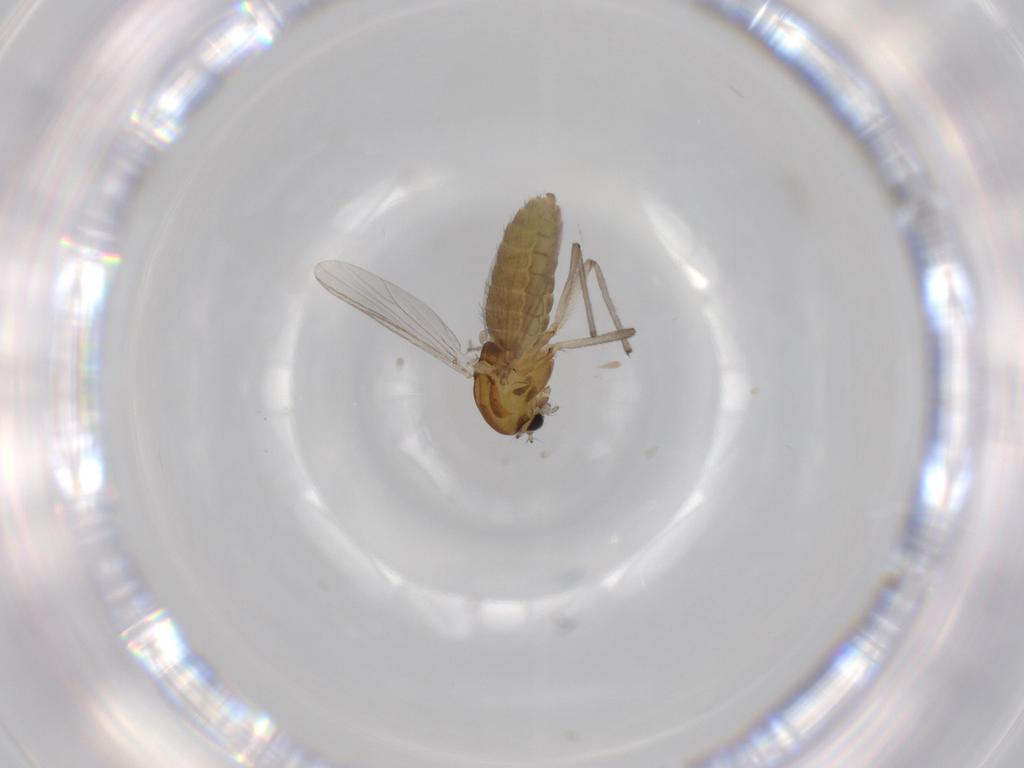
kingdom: Animalia
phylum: Arthropoda
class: Insecta
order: Diptera
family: Chironomidae
